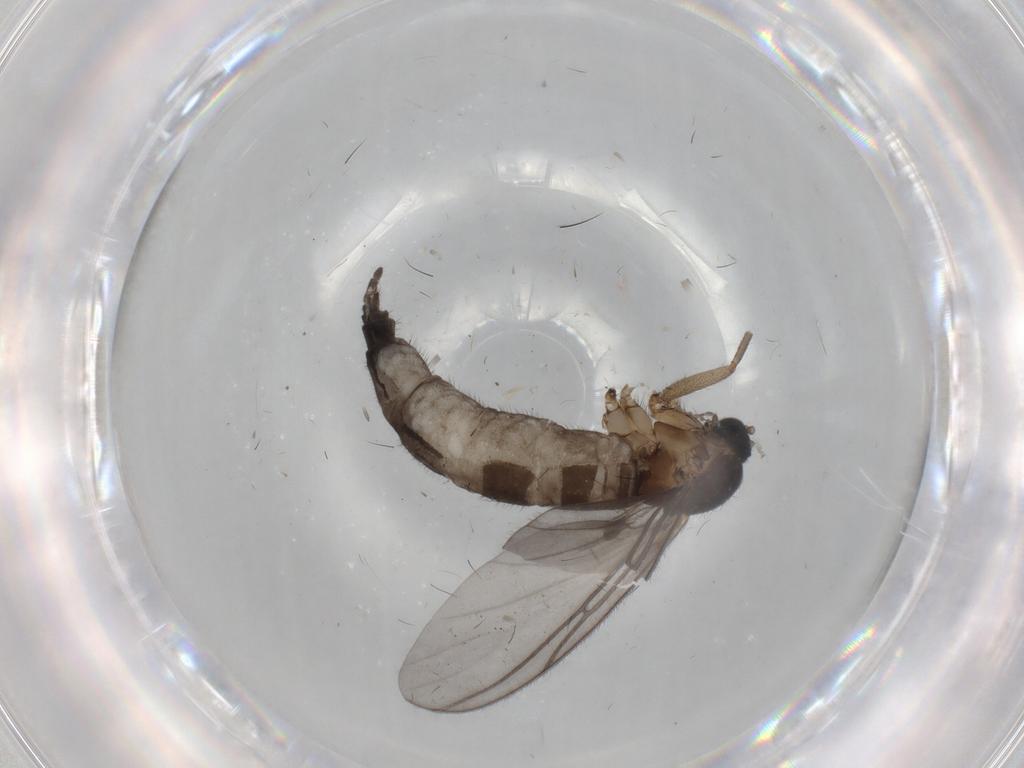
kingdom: Animalia
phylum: Arthropoda
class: Insecta
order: Diptera
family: Sciaridae
